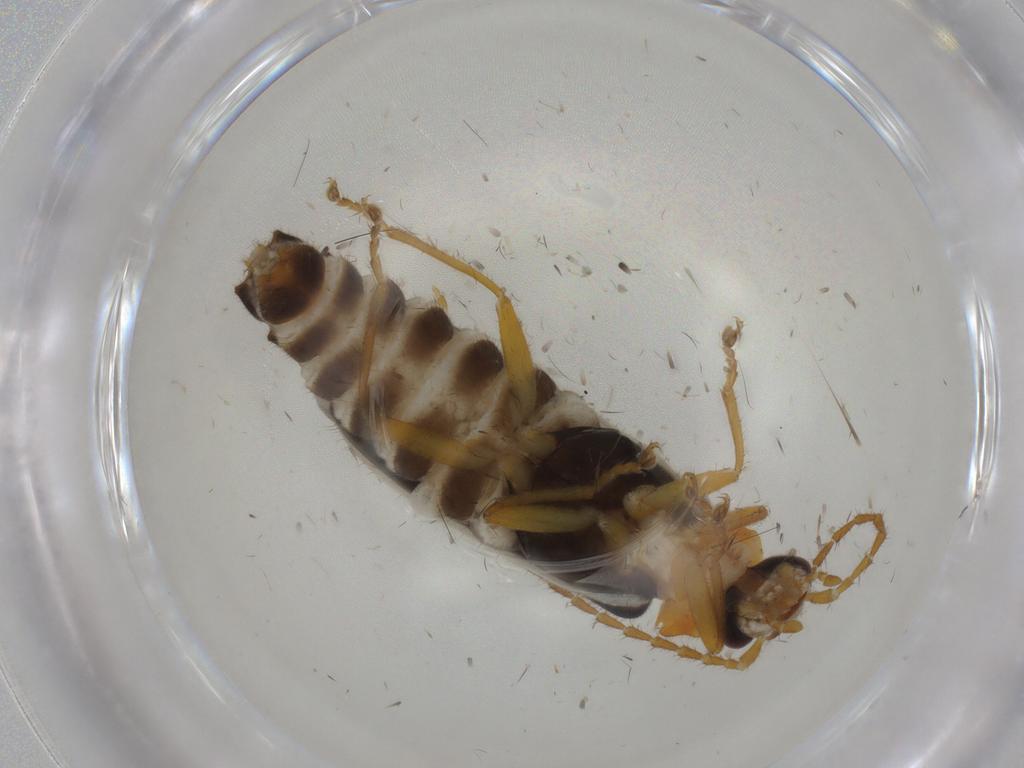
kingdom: Animalia
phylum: Arthropoda
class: Insecta
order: Coleoptera
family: Cantharidae
